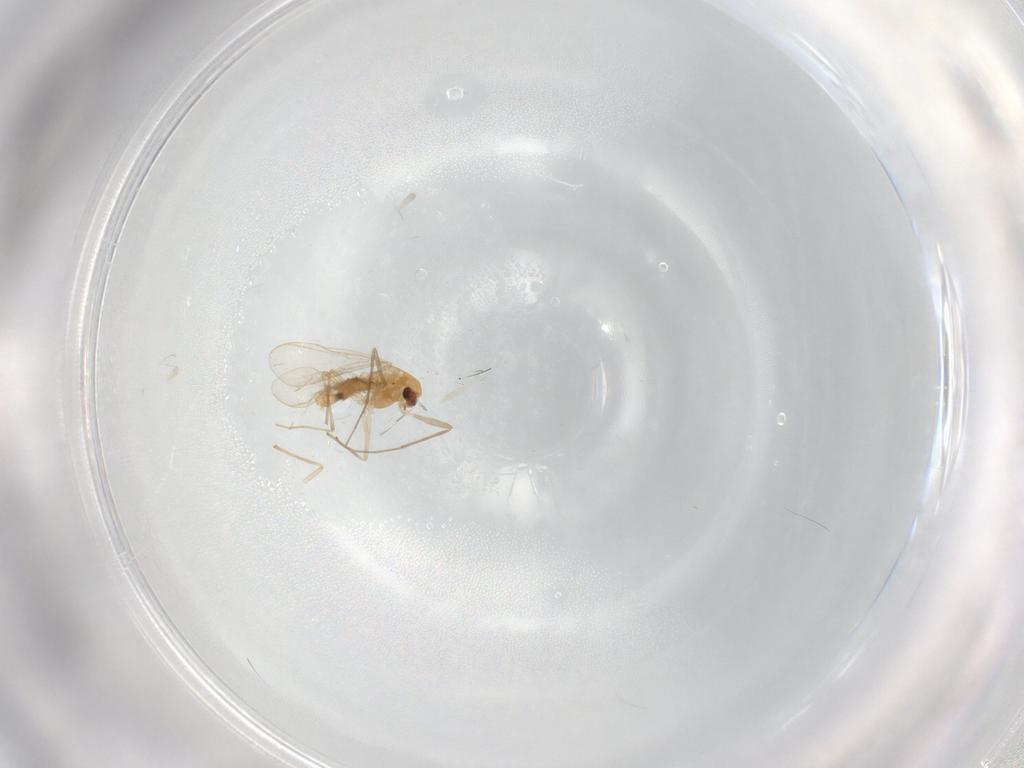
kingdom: Animalia
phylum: Arthropoda
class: Insecta
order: Diptera
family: Chironomidae
